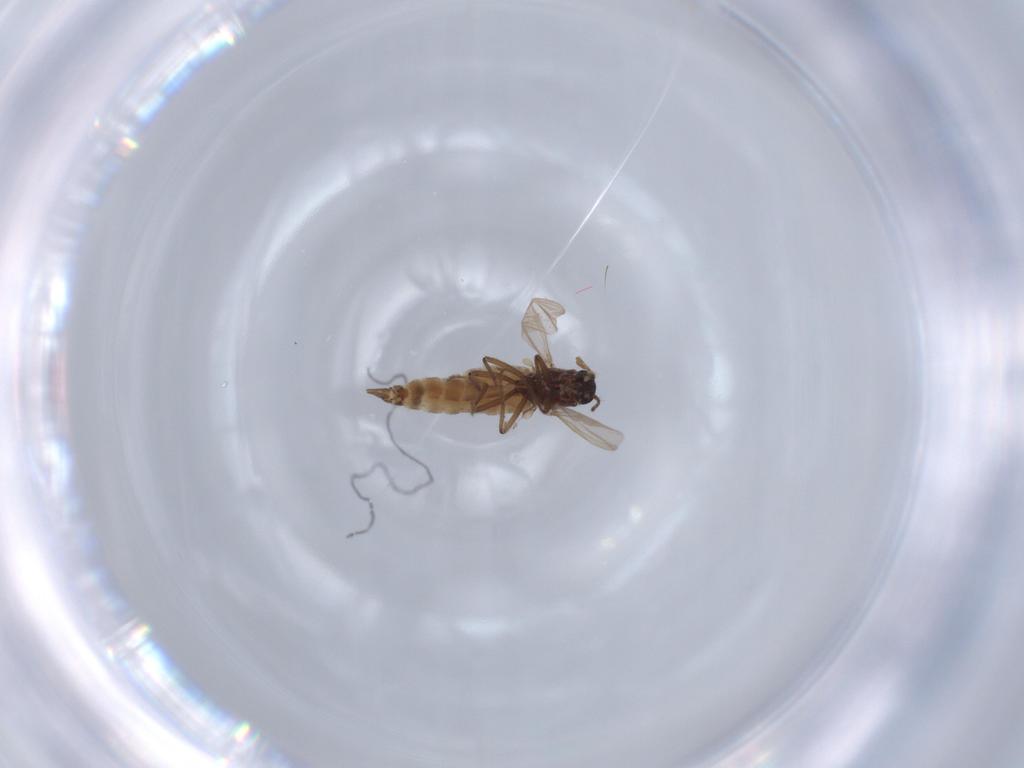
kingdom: Animalia
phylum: Arthropoda
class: Insecta
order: Diptera
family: Ceratopogonidae
